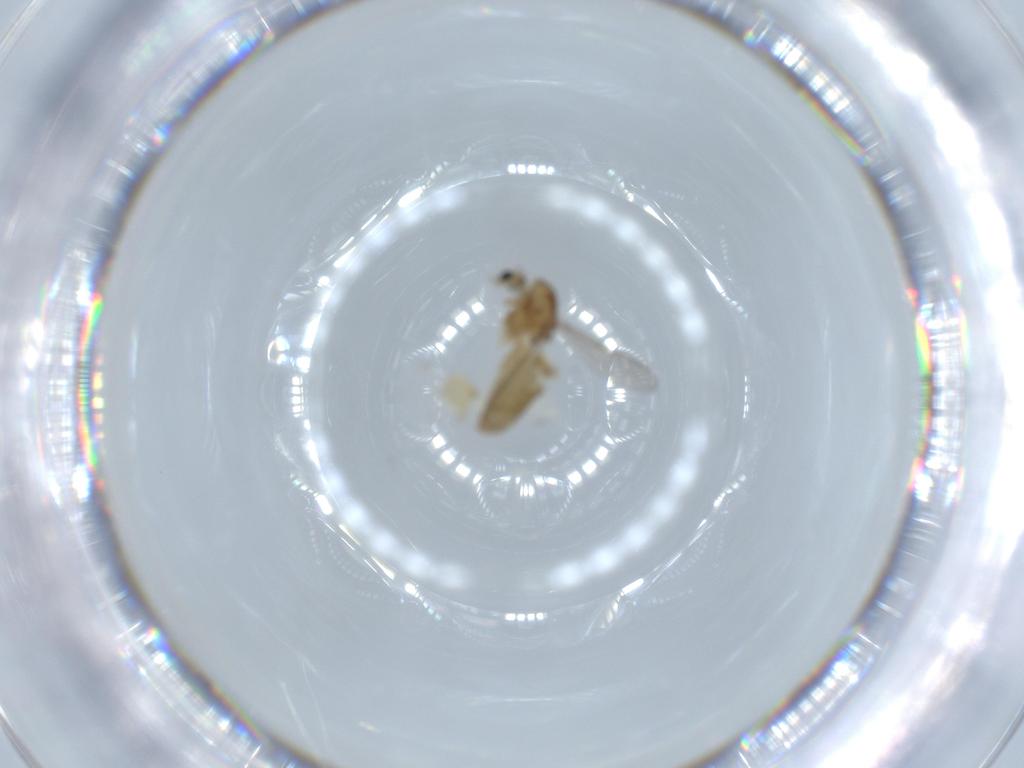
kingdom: Animalia
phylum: Arthropoda
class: Insecta
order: Diptera
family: Chironomidae
